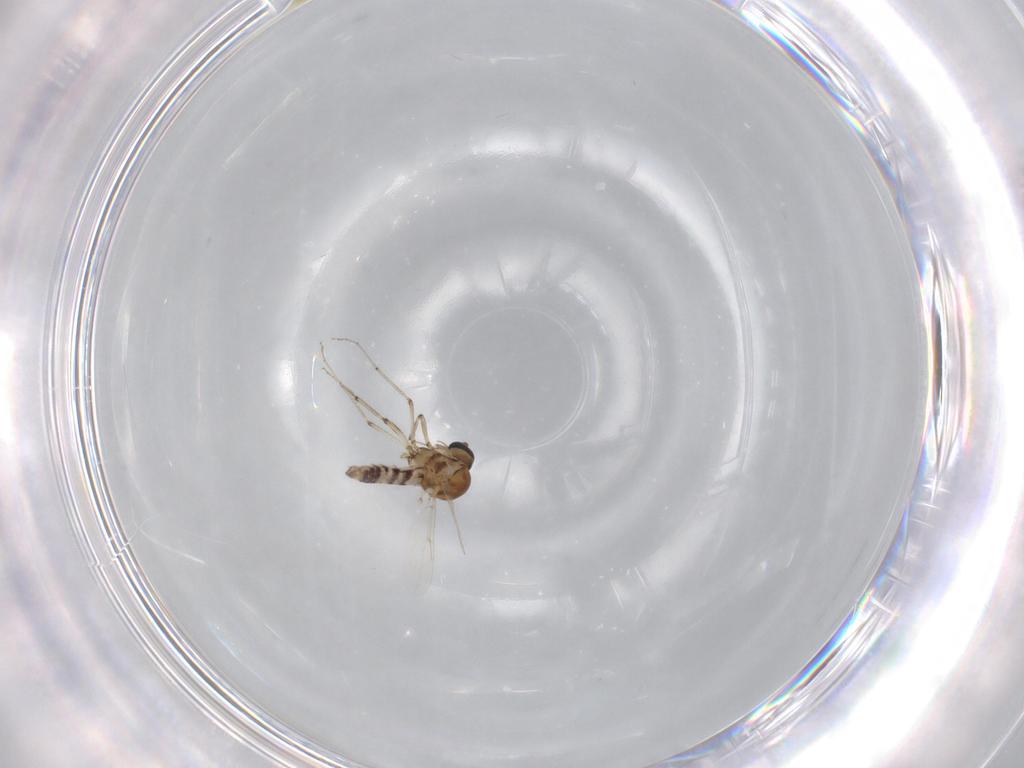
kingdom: Animalia
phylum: Arthropoda
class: Insecta
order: Diptera
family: Ceratopogonidae
